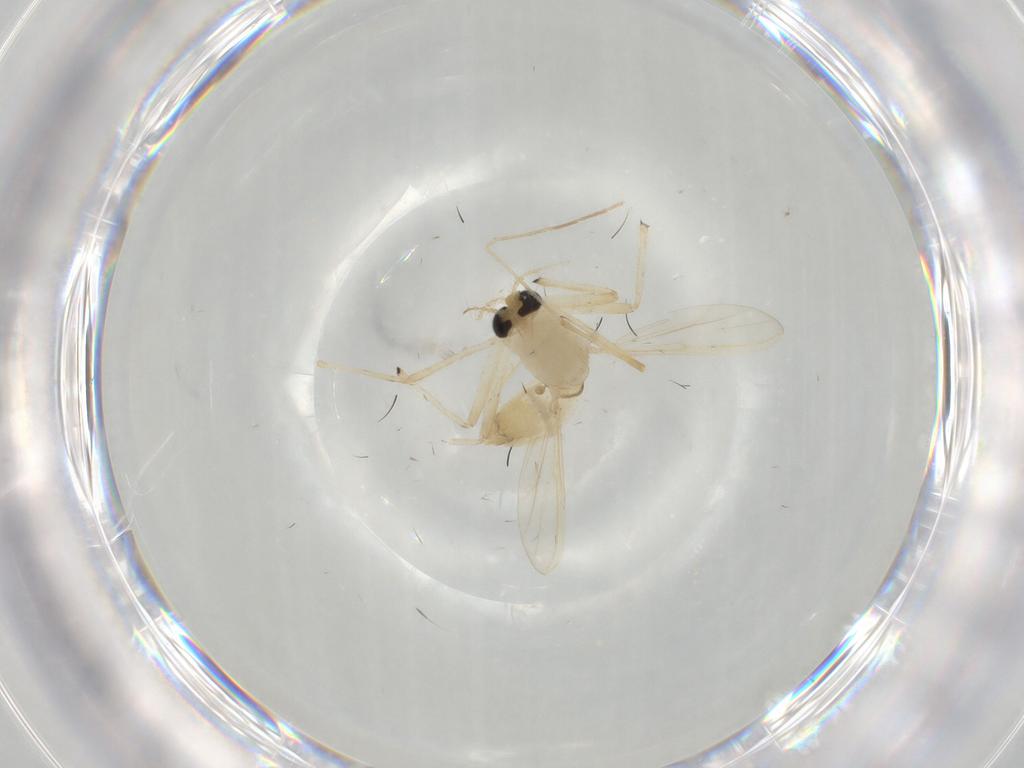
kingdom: Animalia
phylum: Arthropoda
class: Insecta
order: Diptera
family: Chironomidae
